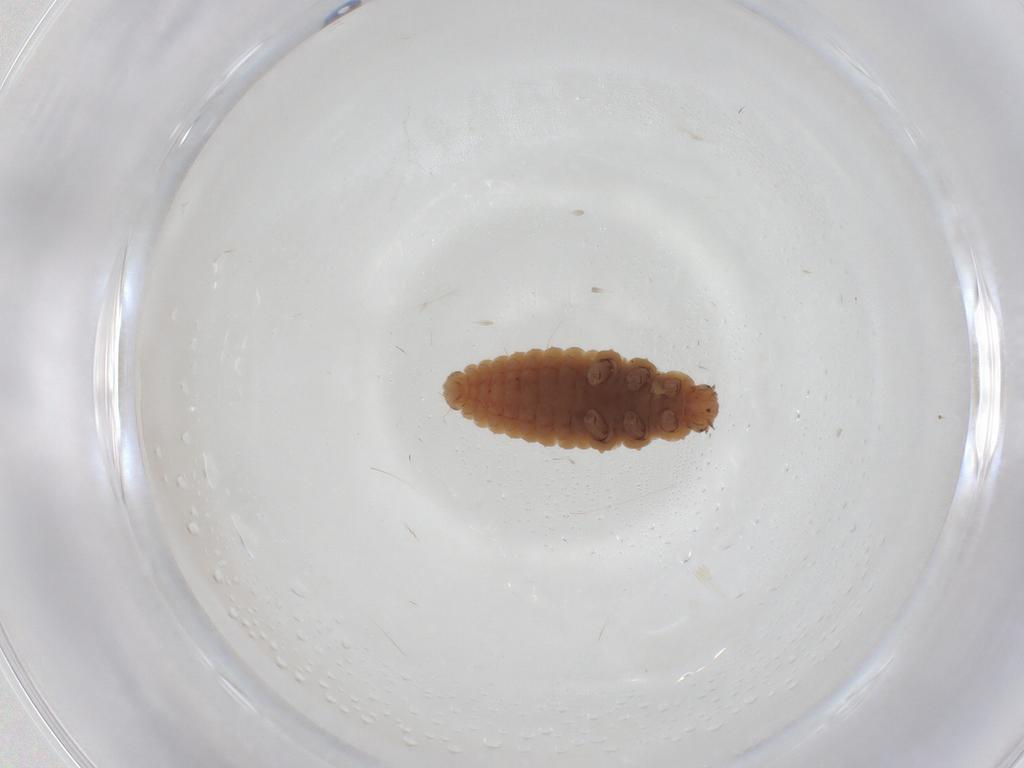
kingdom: Animalia
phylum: Arthropoda
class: Insecta
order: Coleoptera
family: Coccinellidae
